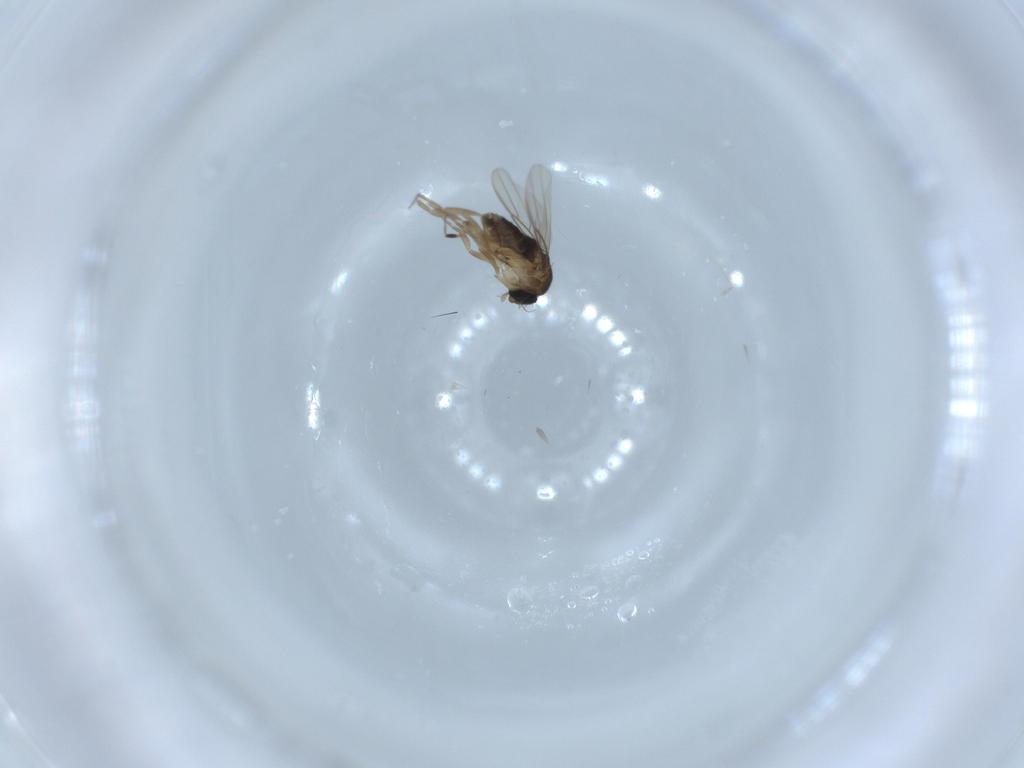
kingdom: Animalia
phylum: Arthropoda
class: Insecta
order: Diptera
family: Phoridae
